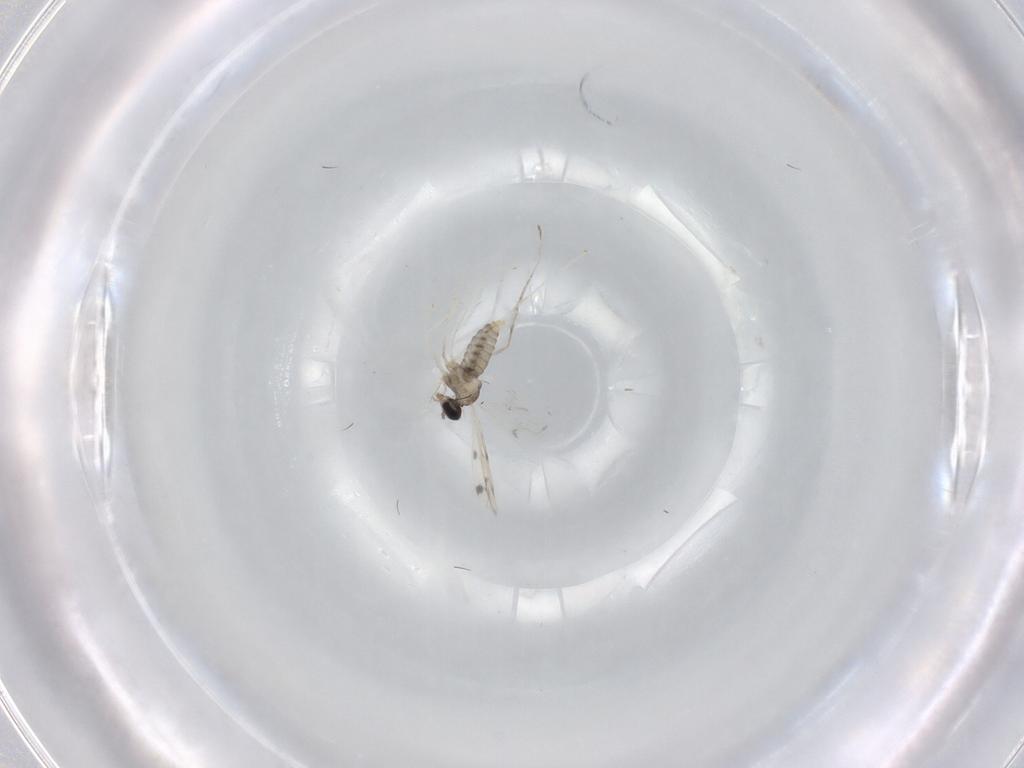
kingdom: Animalia
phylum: Arthropoda
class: Insecta
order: Diptera
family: Cecidomyiidae
